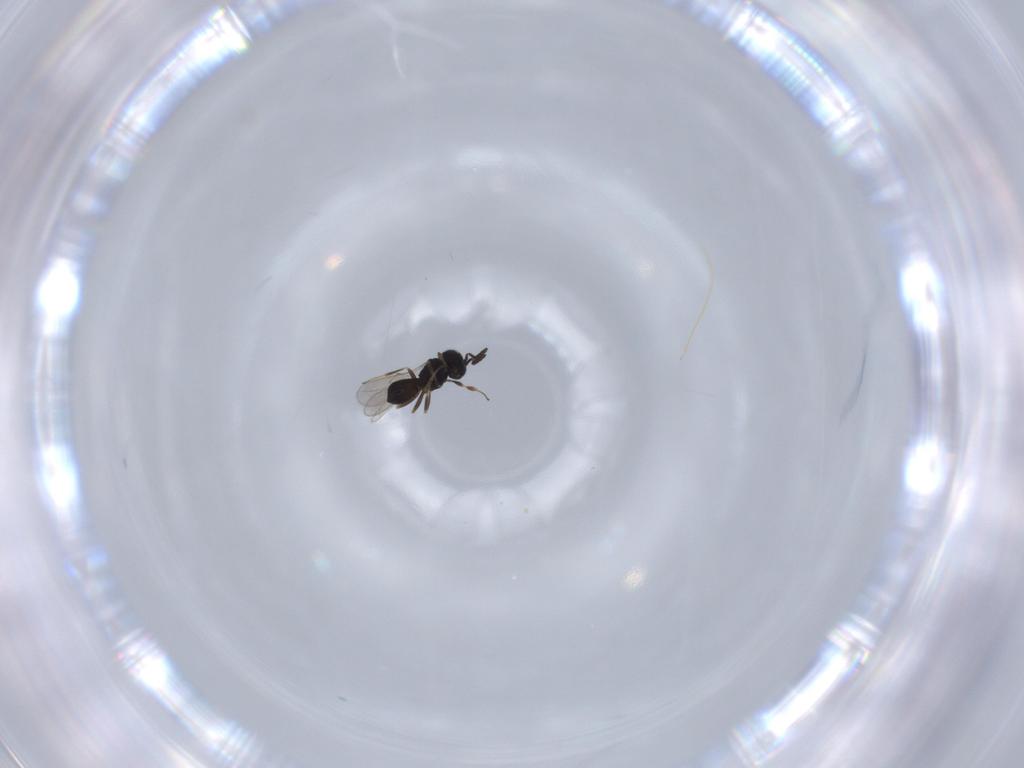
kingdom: Animalia
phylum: Arthropoda
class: Insecta
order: Hymenoptera
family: Scelionidae
